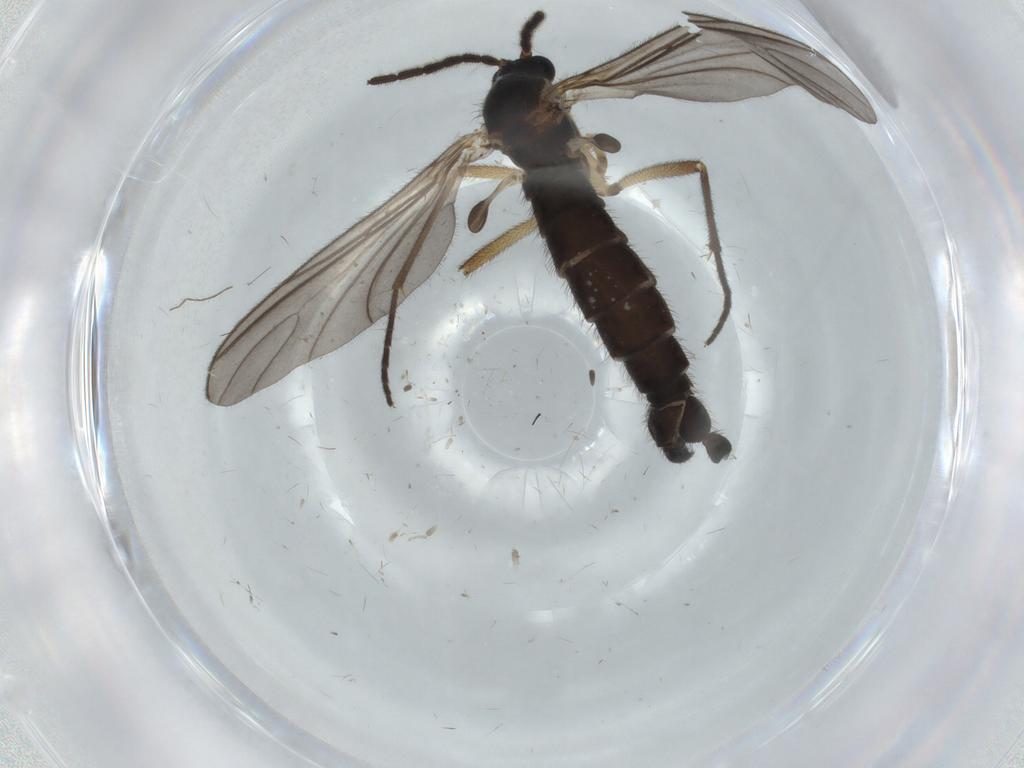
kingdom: Animalia
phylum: Arthropoda
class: Insecta
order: Diptera
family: Sciaridae
